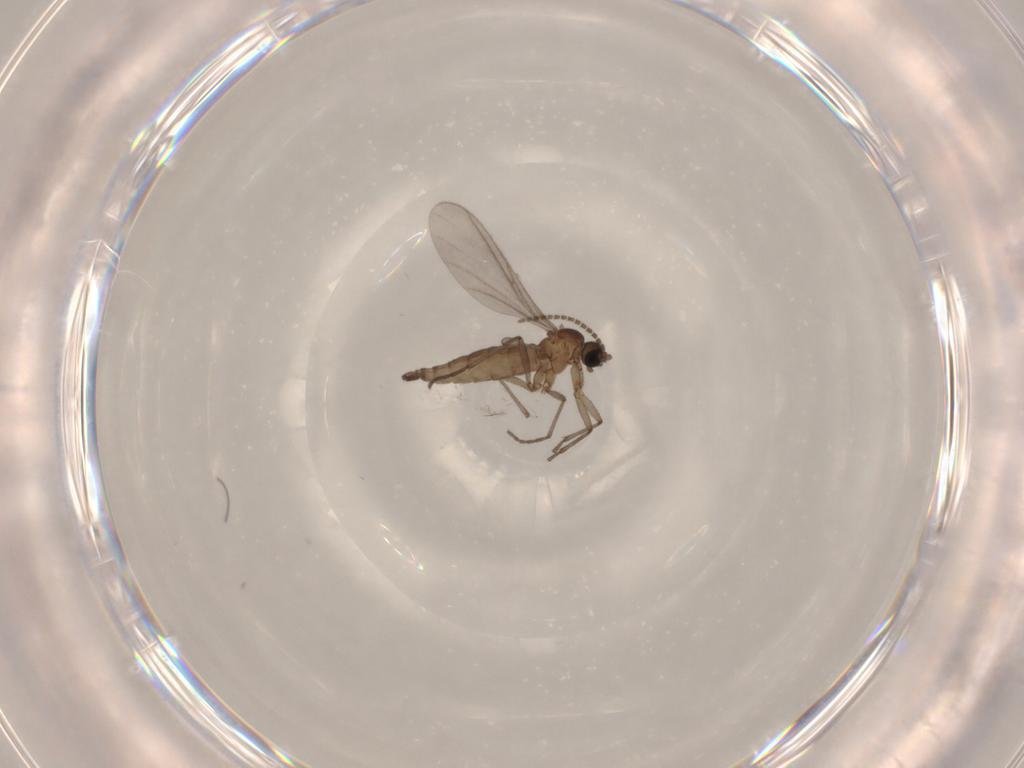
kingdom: Animalia
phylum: Arthropoda
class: Insecta
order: Diptera
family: Sciaridae
